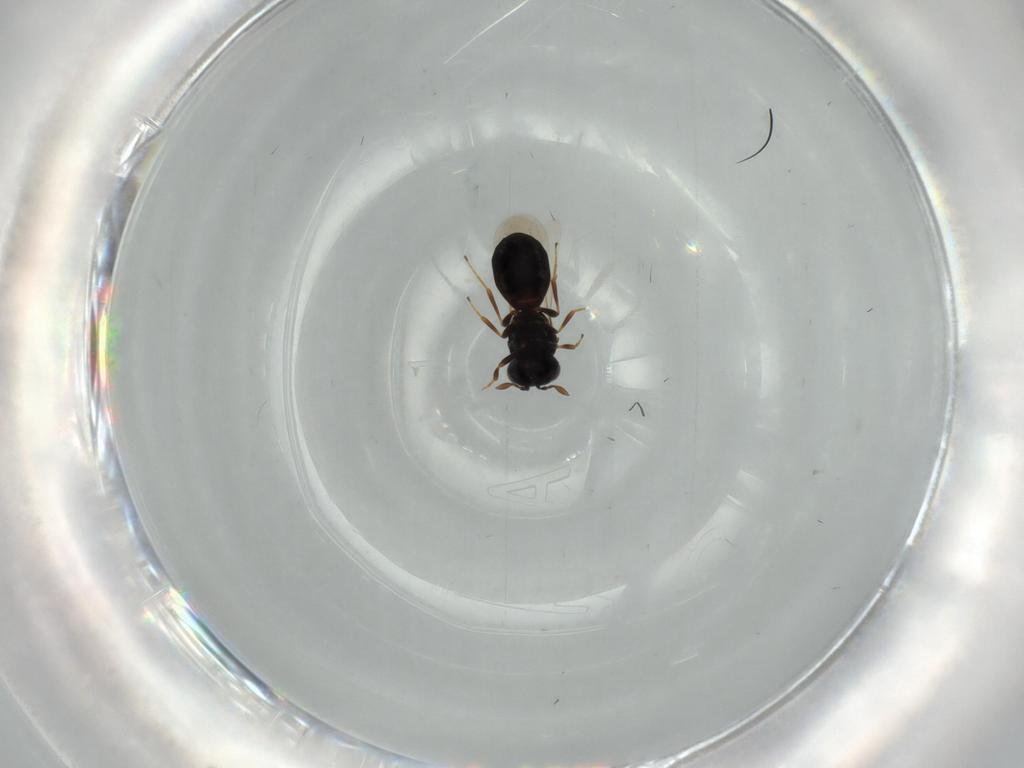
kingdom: Animalia
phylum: Arthropoda
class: Insecta
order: Hymenoptera
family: Scelionidae
